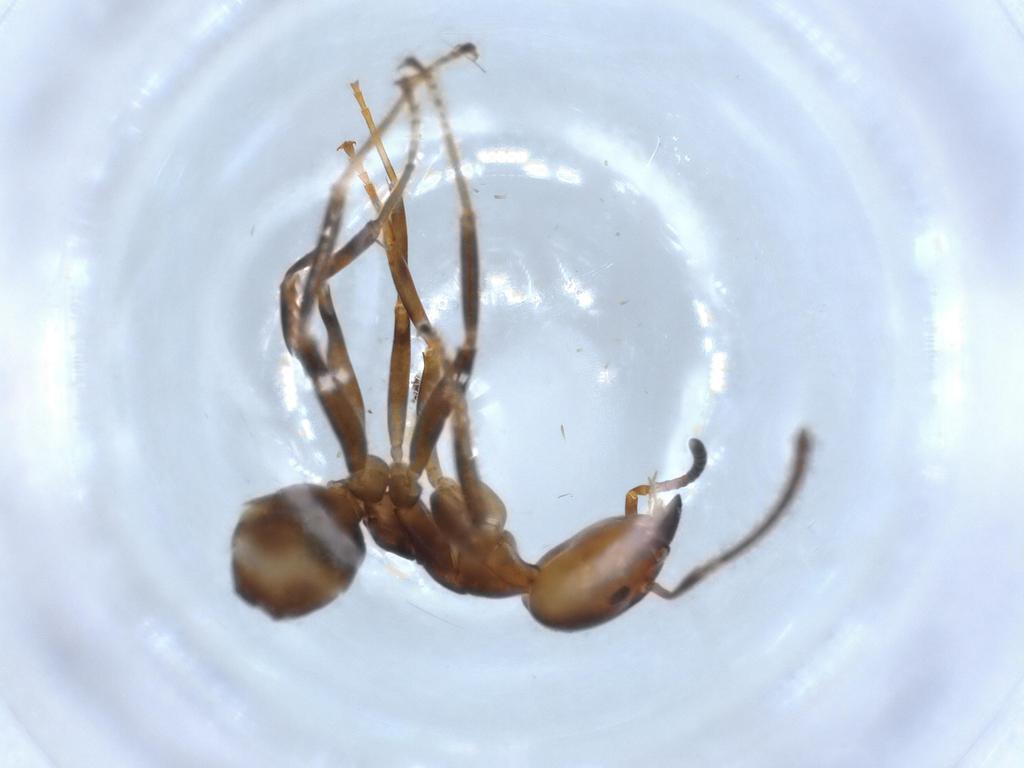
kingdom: Animalia
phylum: Arthropoda
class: Insecta
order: Hymenoptera
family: Formicidae
